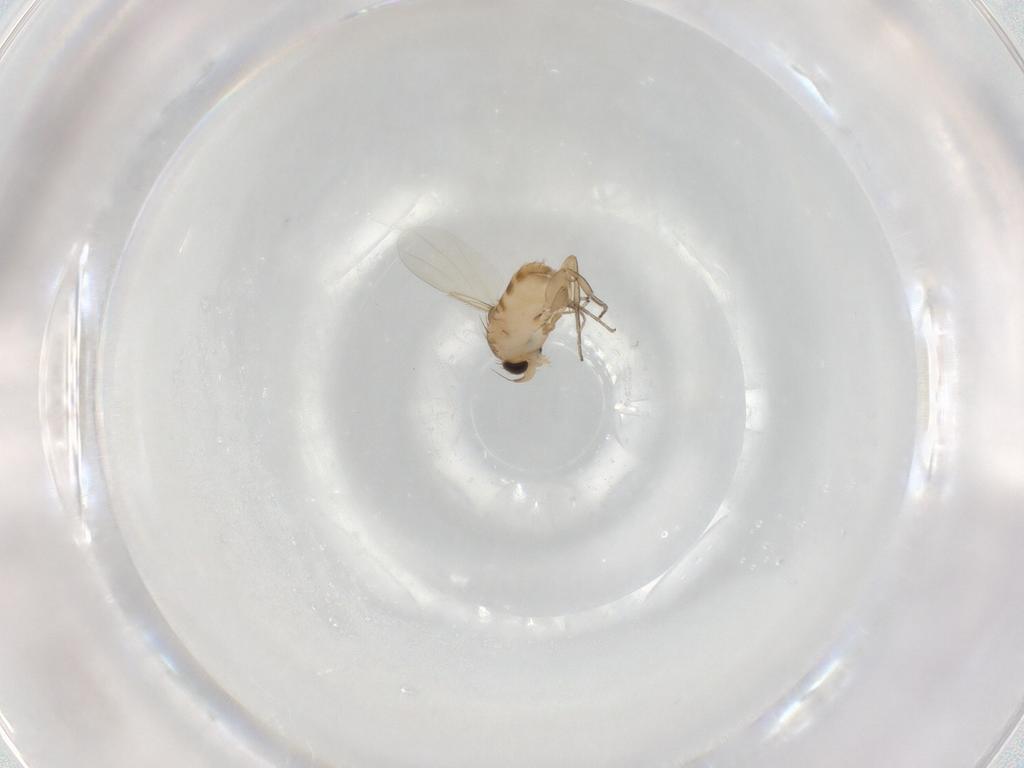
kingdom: Animalia
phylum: Arthropoda
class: Insecta
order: Diptera
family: Phoridae
